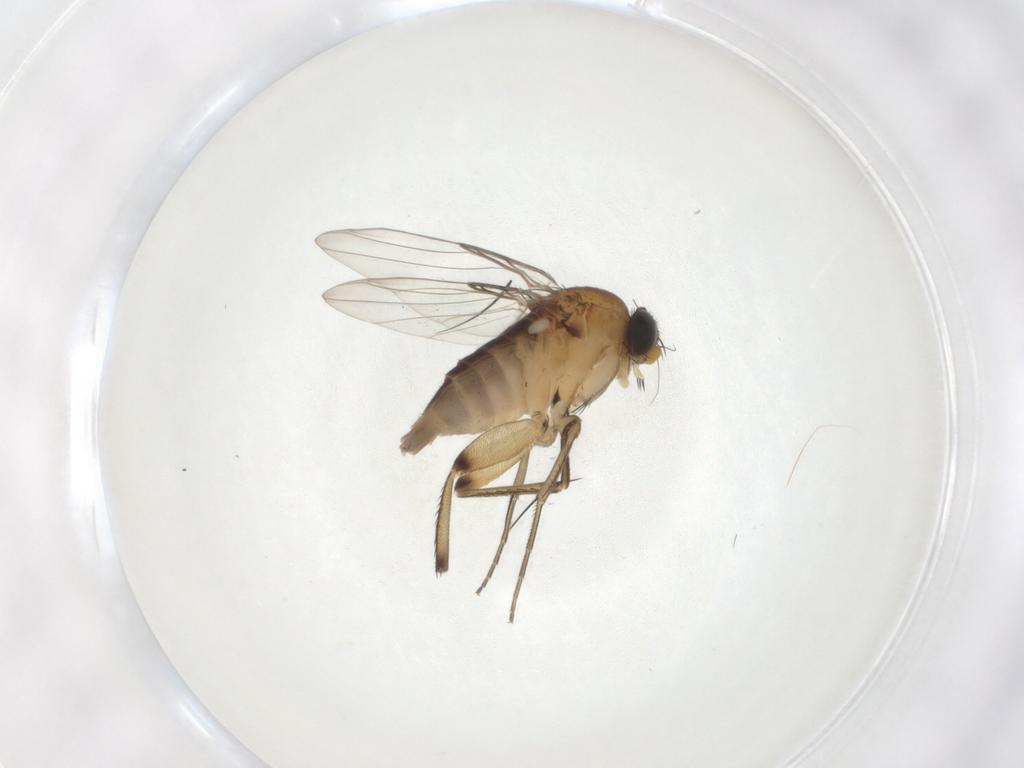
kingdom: Animalia
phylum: Arthropoda
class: Insecta
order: Diptera
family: Phoridae
